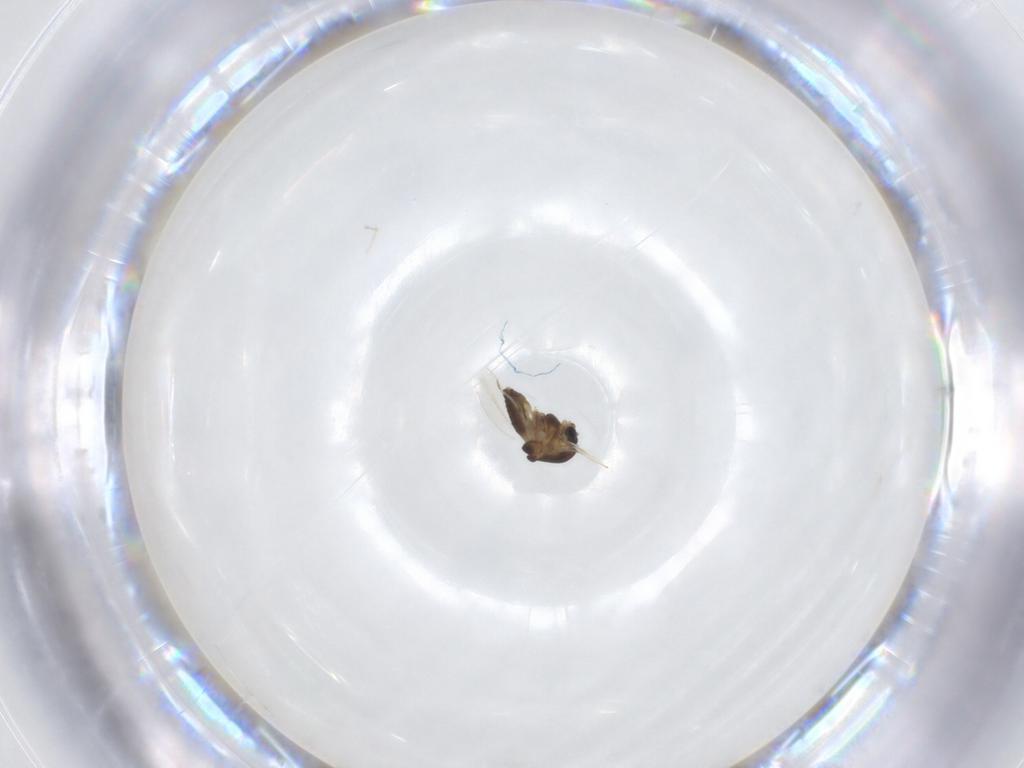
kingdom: Animalia
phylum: Arthropoda
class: Insecta
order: Diptera
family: Chironomidae
